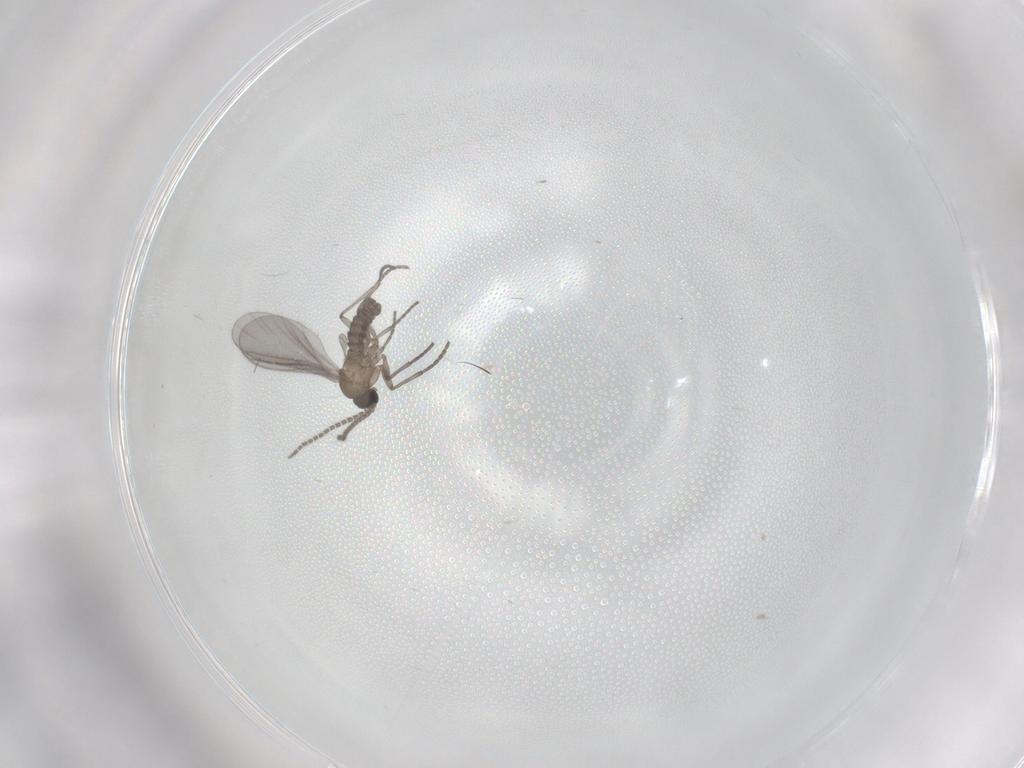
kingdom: Animalia
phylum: Arthropoda
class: Insecta
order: Diptera
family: Sciaridae
